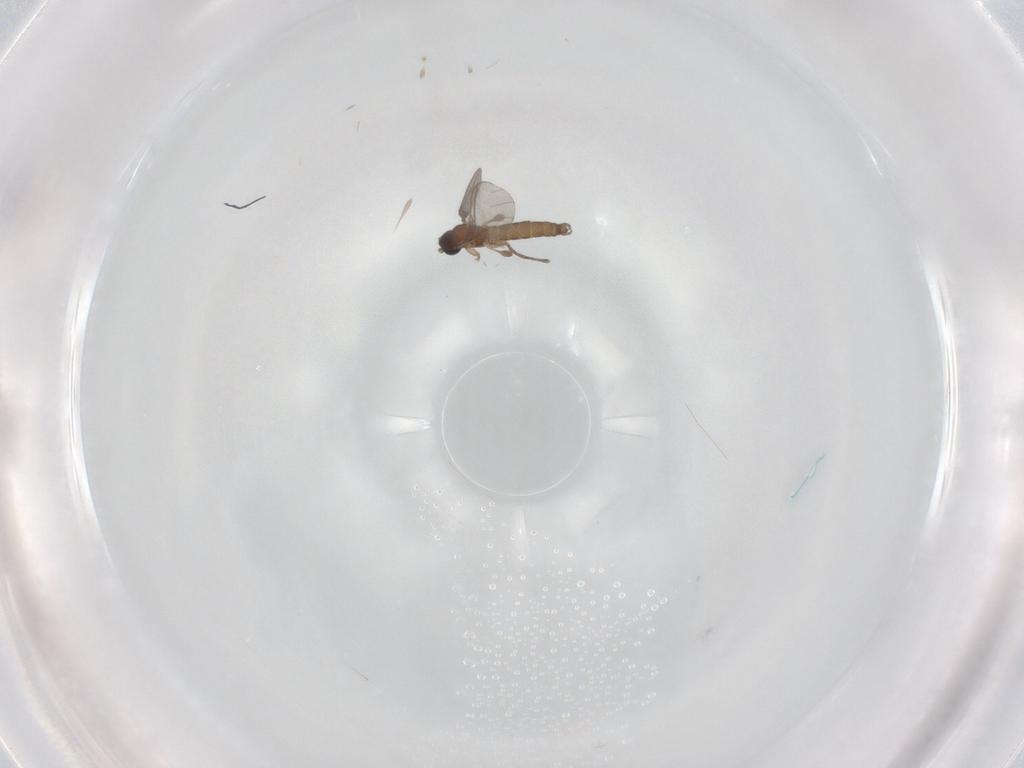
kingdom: Animalia
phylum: Arthropoda
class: Insecta
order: Diptera
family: Sciaridae
